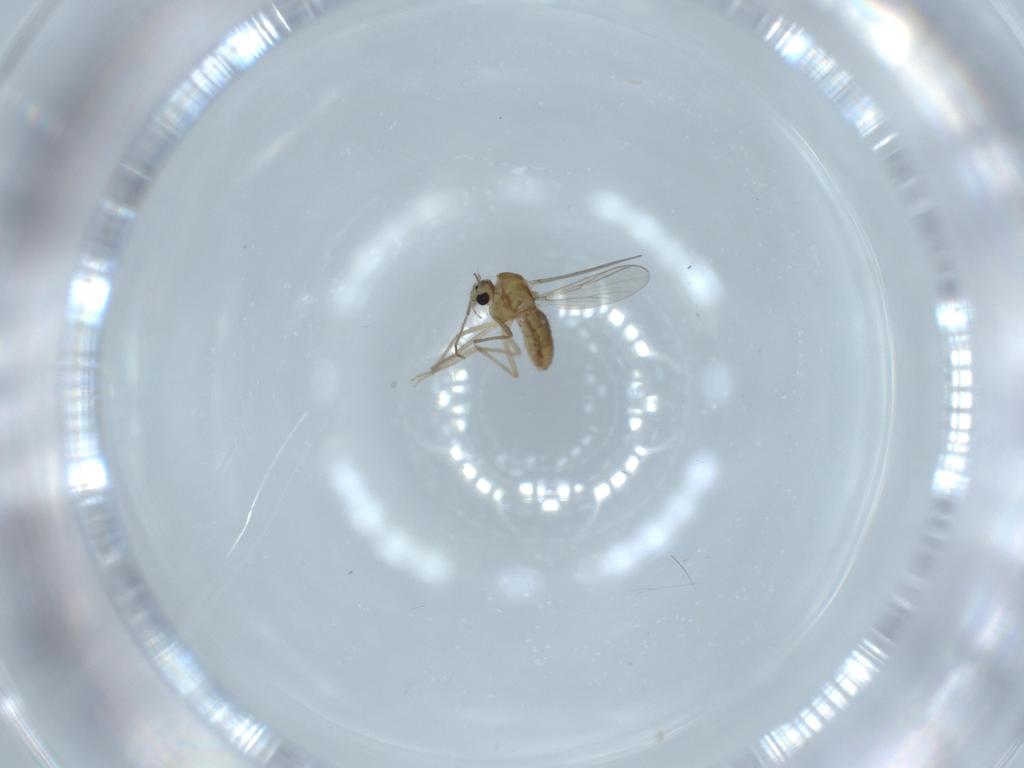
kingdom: Animalia
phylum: Arthropoda
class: Insecta
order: Diptera
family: Chironomidae
